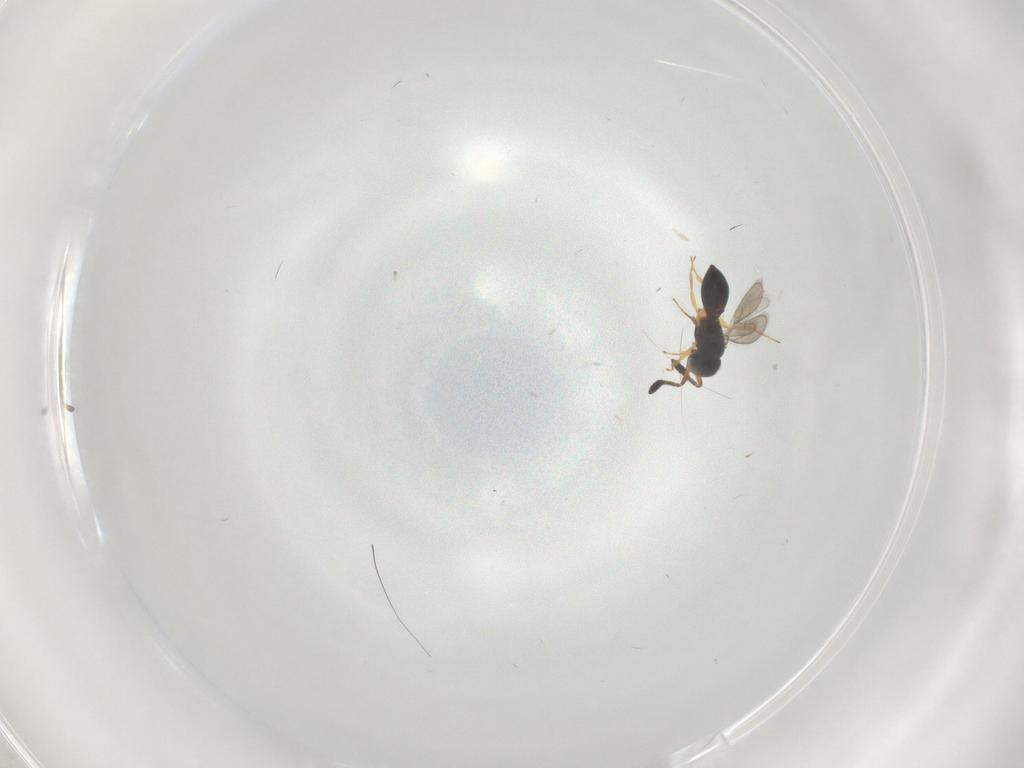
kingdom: Animalia
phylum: Arthropoda
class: Insecta
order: Hymenoptera
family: Scelionidae
